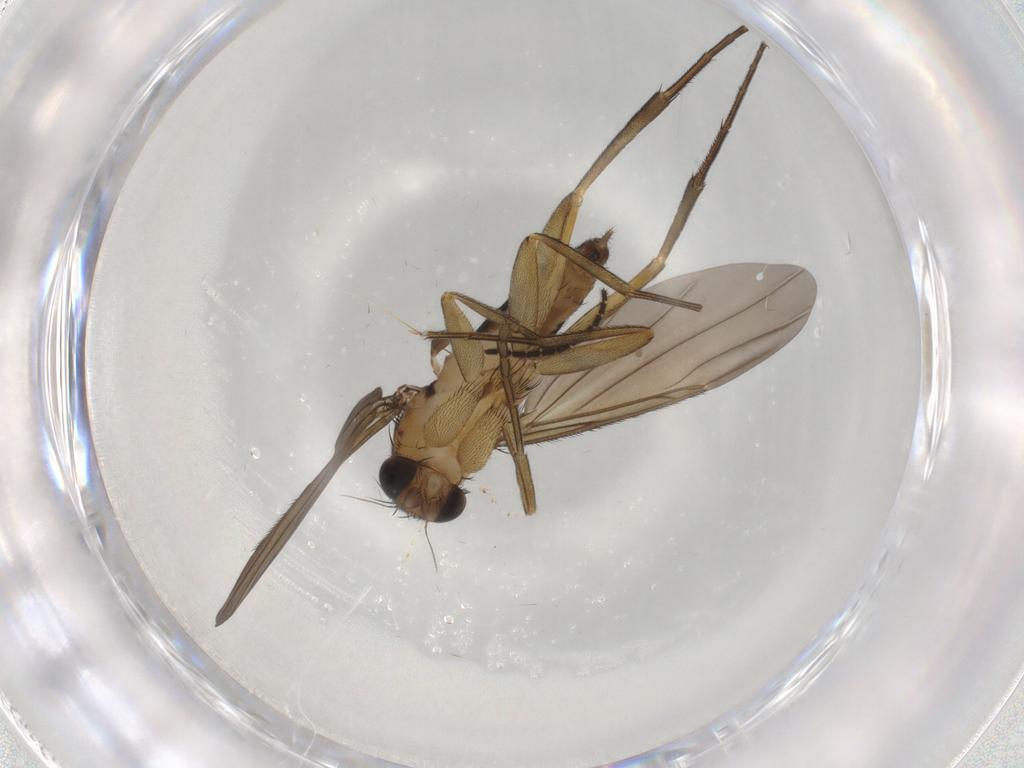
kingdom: Animalia
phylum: Arthropoda
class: Insecta
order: Diptera
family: Phoridae
